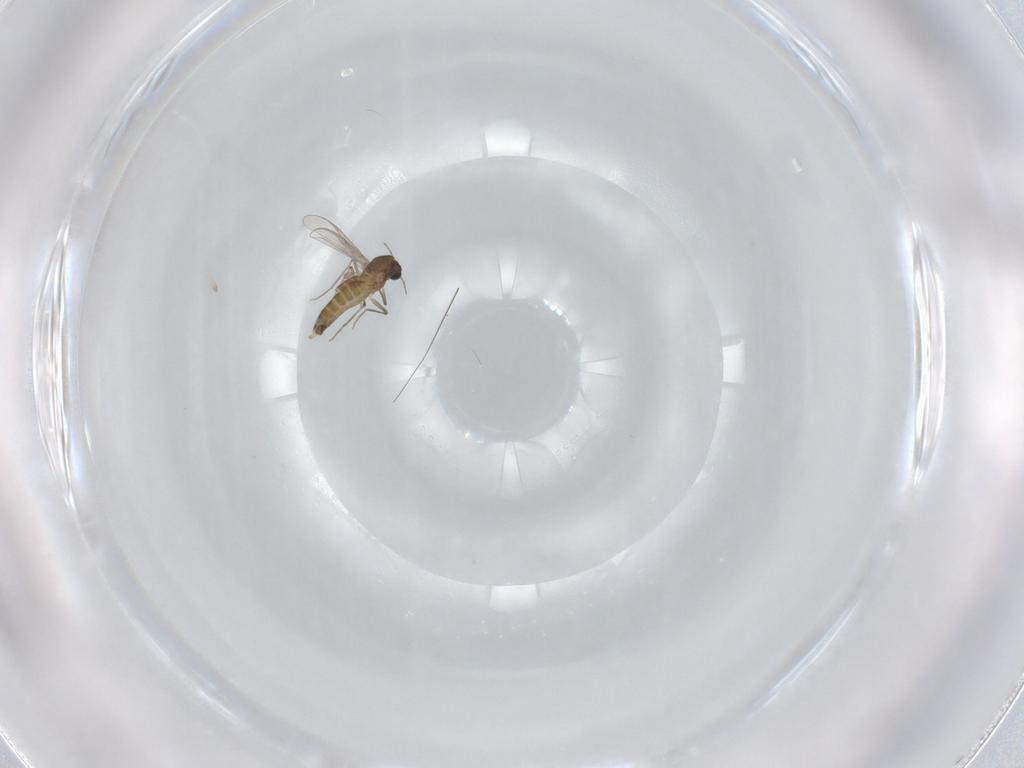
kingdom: Animalia
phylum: Arthropoda
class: Insecta
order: Diptera
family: Chironomidae
